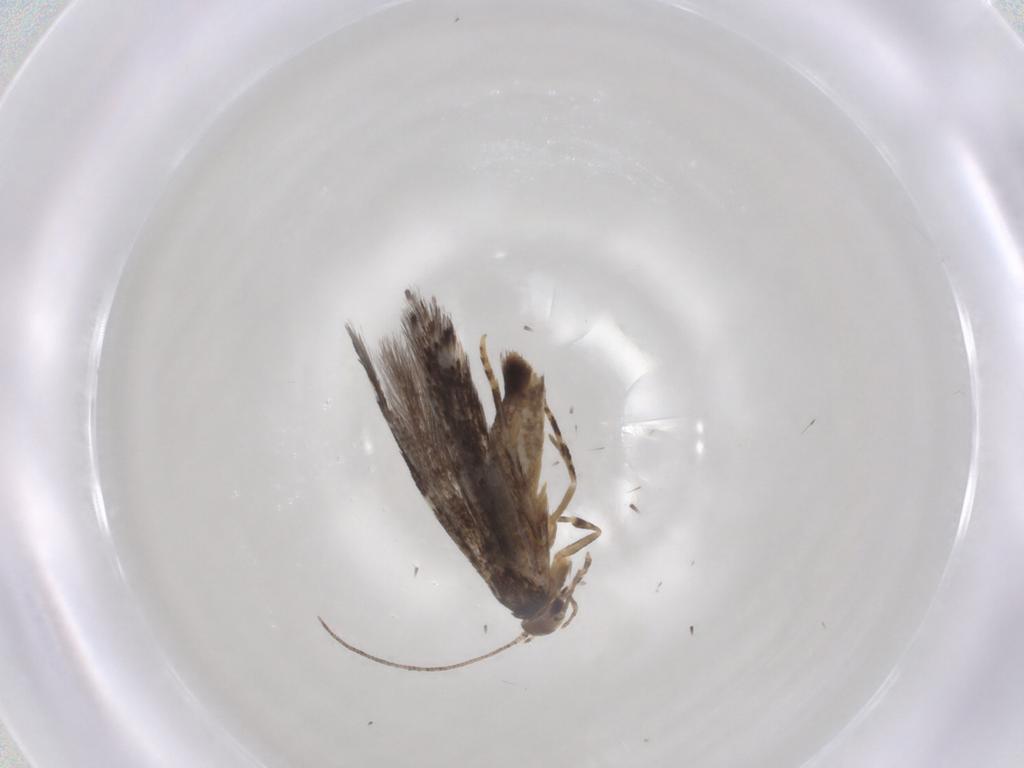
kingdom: Animalia
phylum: Arthropoda
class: Insecta
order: Lepidoptera
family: Elachistidae
